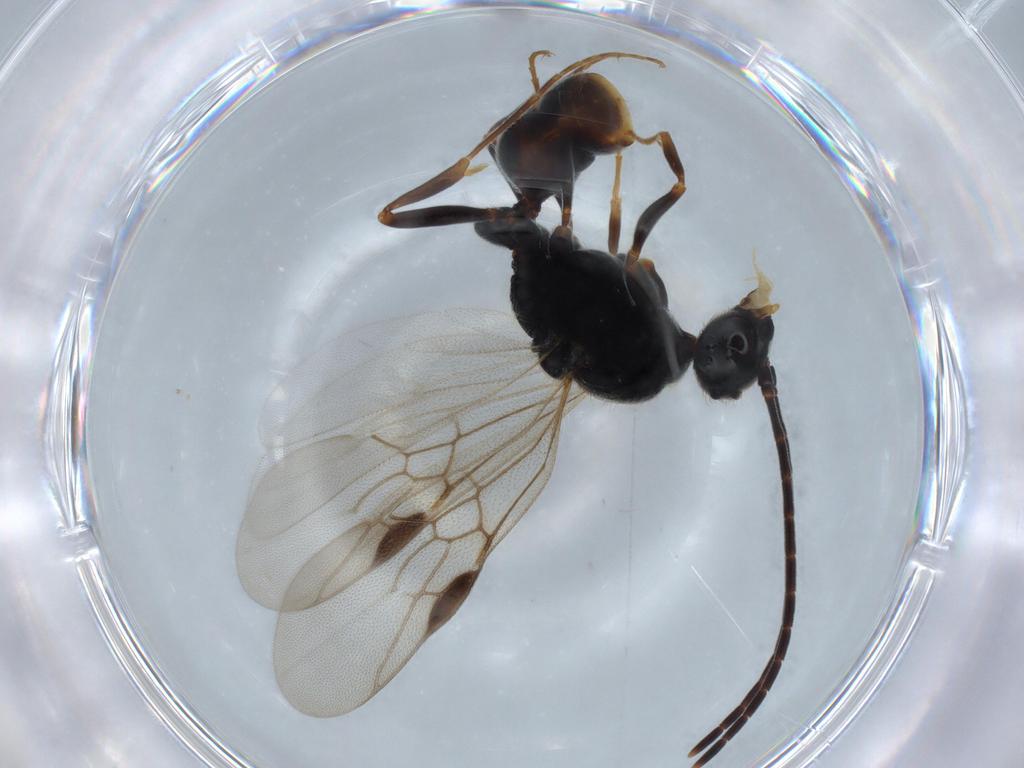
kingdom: Animalia
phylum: Arthropoda
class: Insecta
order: Hymenoptera
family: Formicidae
